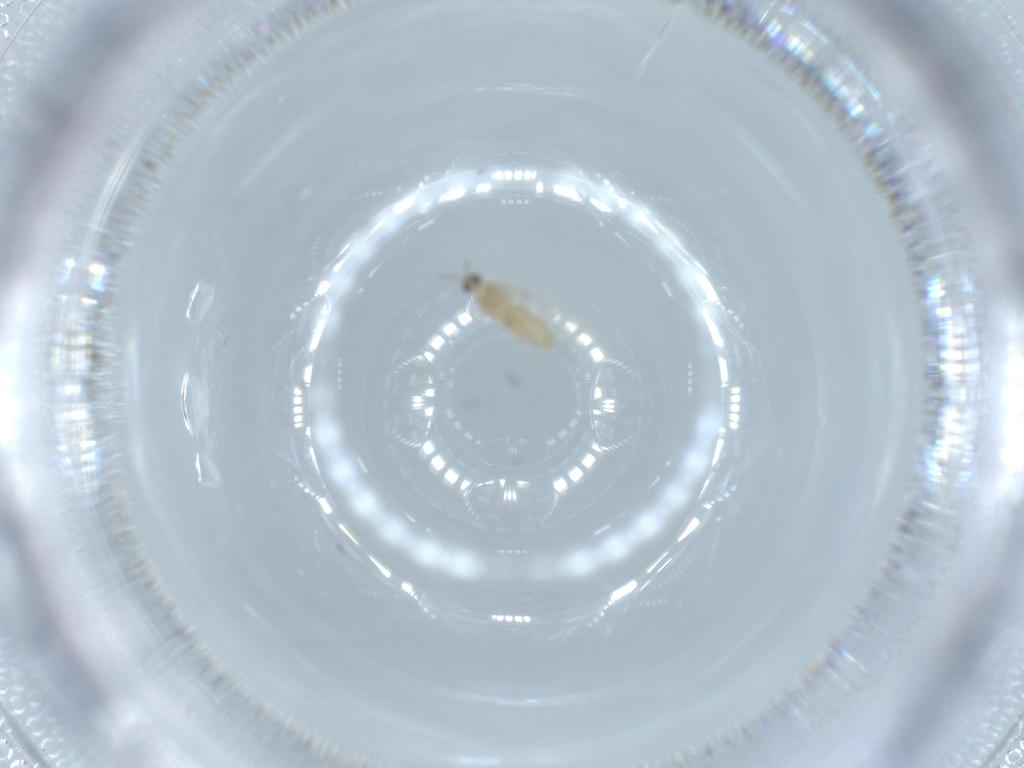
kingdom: Animalia
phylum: Arthropoda
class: Insecta
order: Diptera
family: Cecidomyiidae
